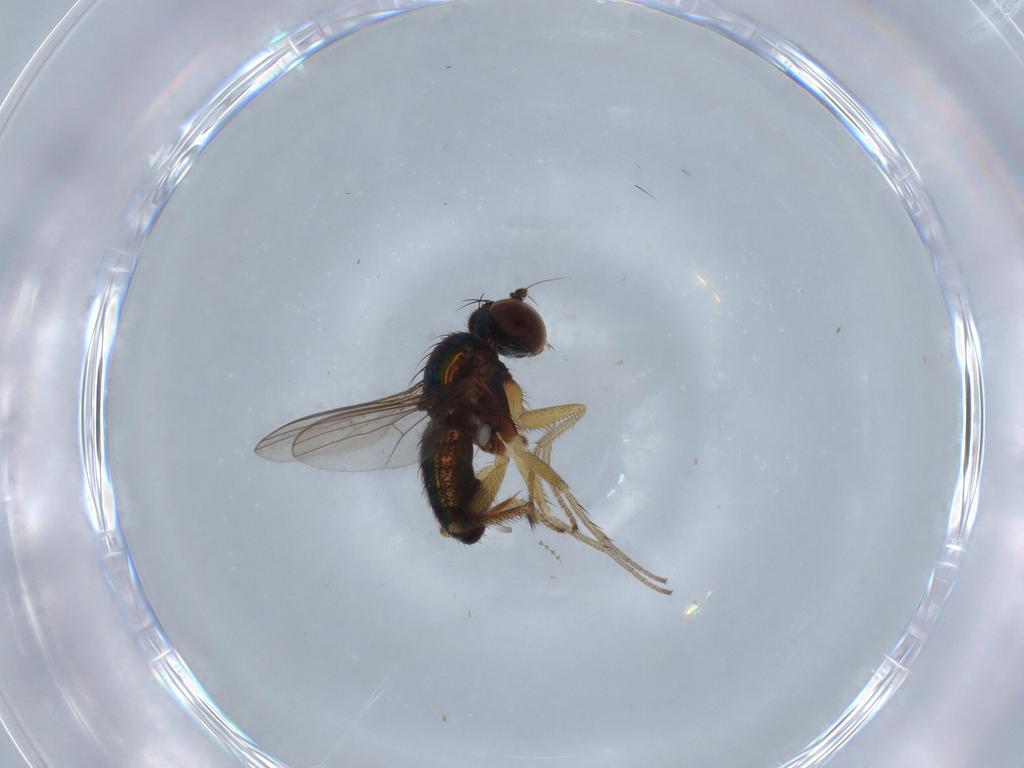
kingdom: Animalia
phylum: Arthropoda
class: Insecta
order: Diptera
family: Cecidomyiidae
